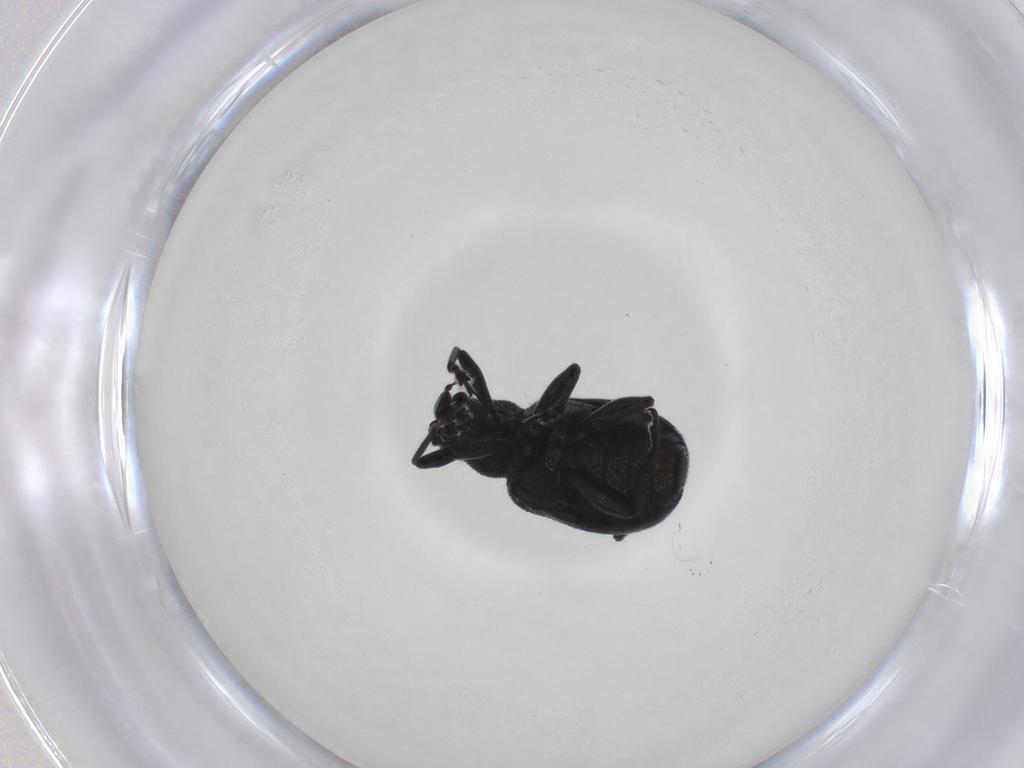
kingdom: Animalia
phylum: Arthropoda
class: Insecta
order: Coleoptera
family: Attelabidae
